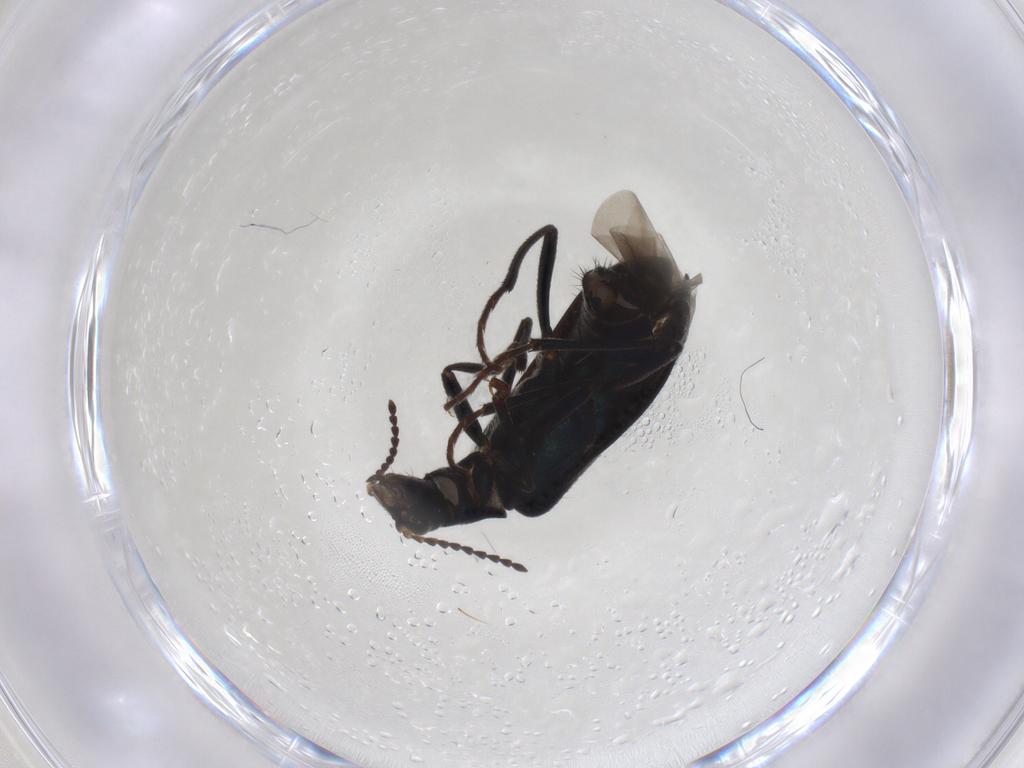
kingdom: Animalia
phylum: Arthropoda
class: Insecta
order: Coleoptera
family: Melyridae
